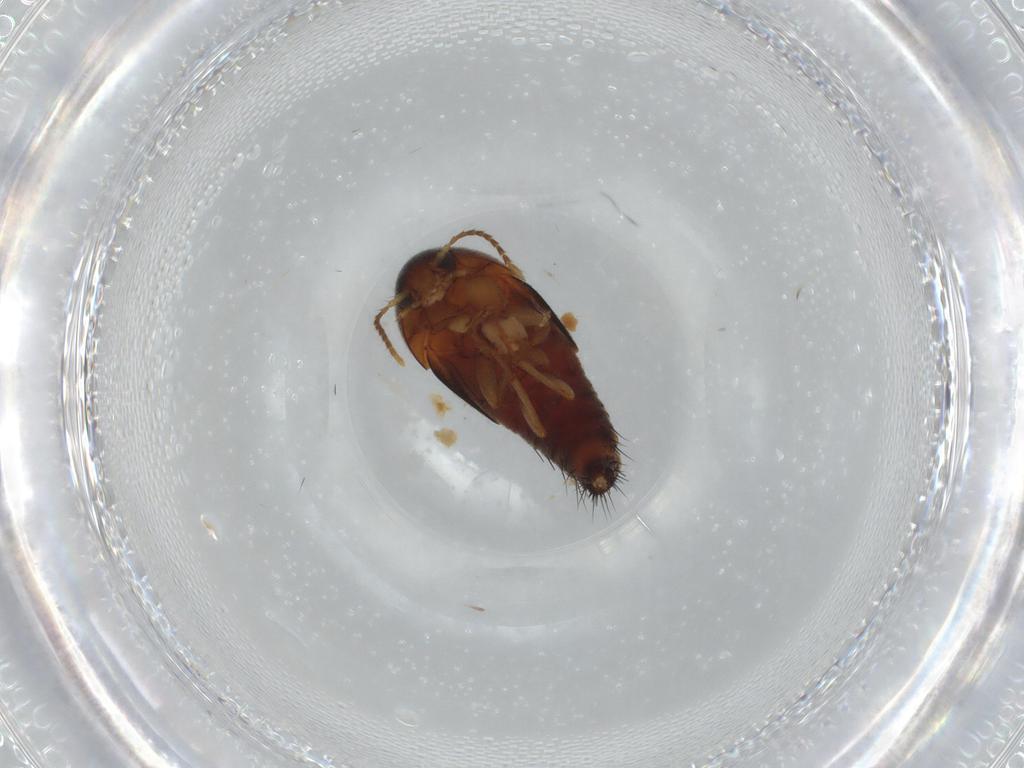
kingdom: Animalia
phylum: Arthropoda
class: Insecta
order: Coleoptera
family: Staphylinidae
